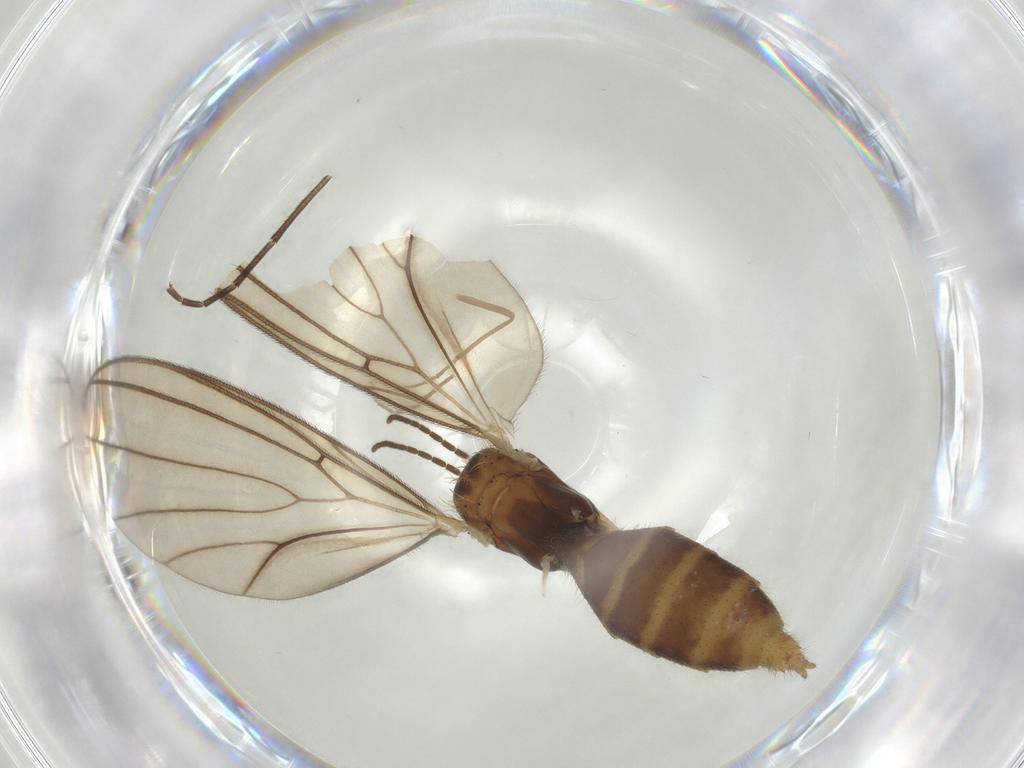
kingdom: Animalia
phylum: Arthropoda
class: Insecta
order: Diptera
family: Mycetophilidae
